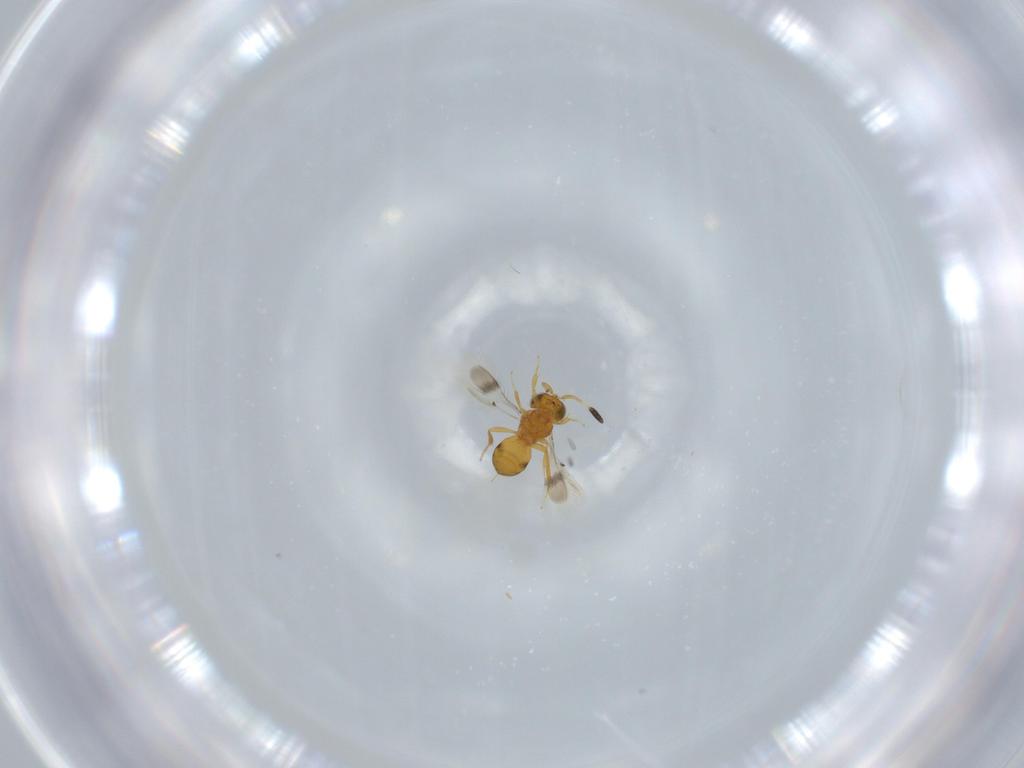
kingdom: Animalia
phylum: Arthropoda
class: Insecta
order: Hymenoptera
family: Scelionidae
